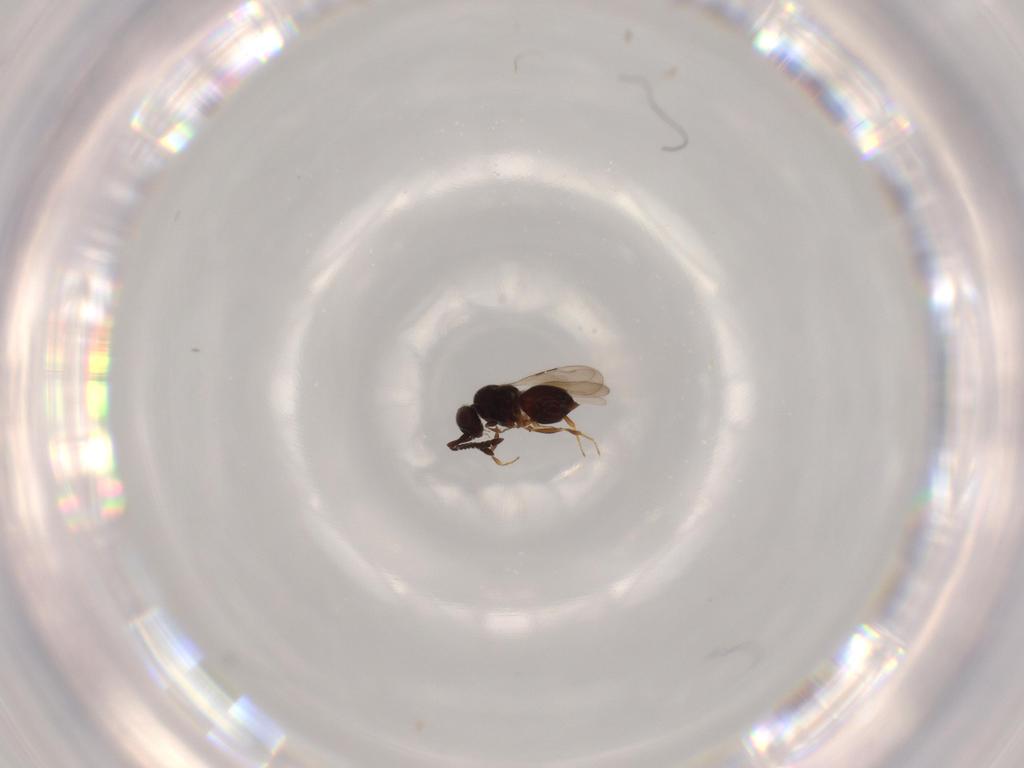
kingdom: Animalia
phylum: Arthropoda
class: Insecta
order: Hymenoptera
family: Ceraphronidae
